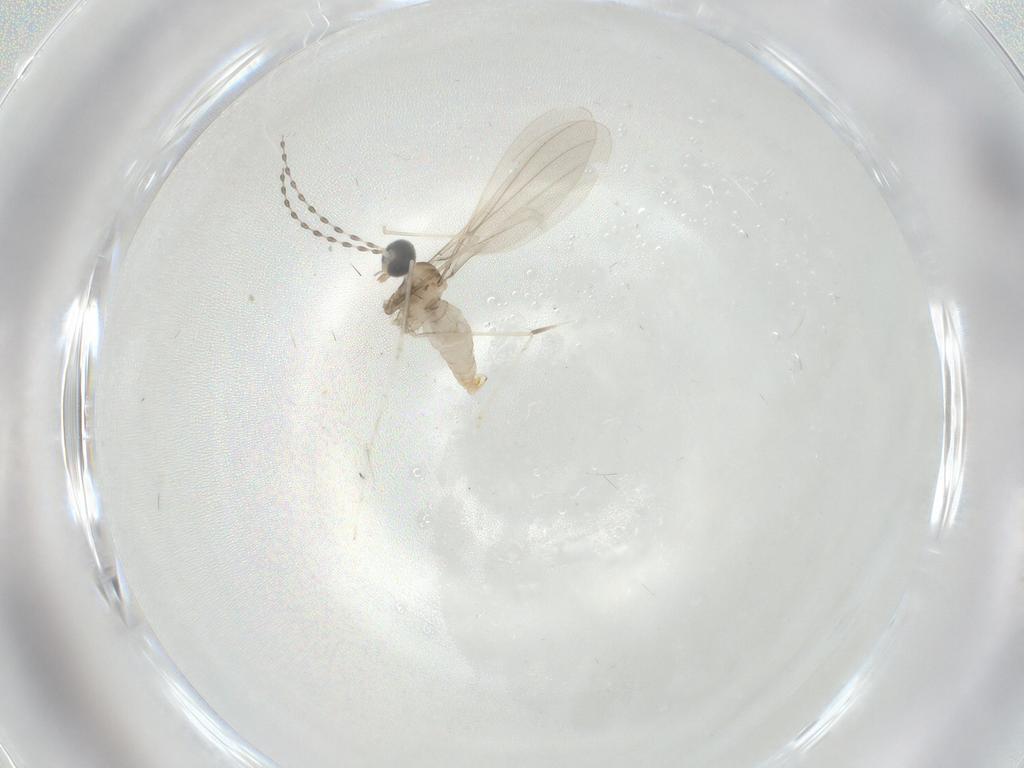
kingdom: Animalia
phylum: Arthropoda
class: Insecta
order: Diptera
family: Cecidomyiidae
